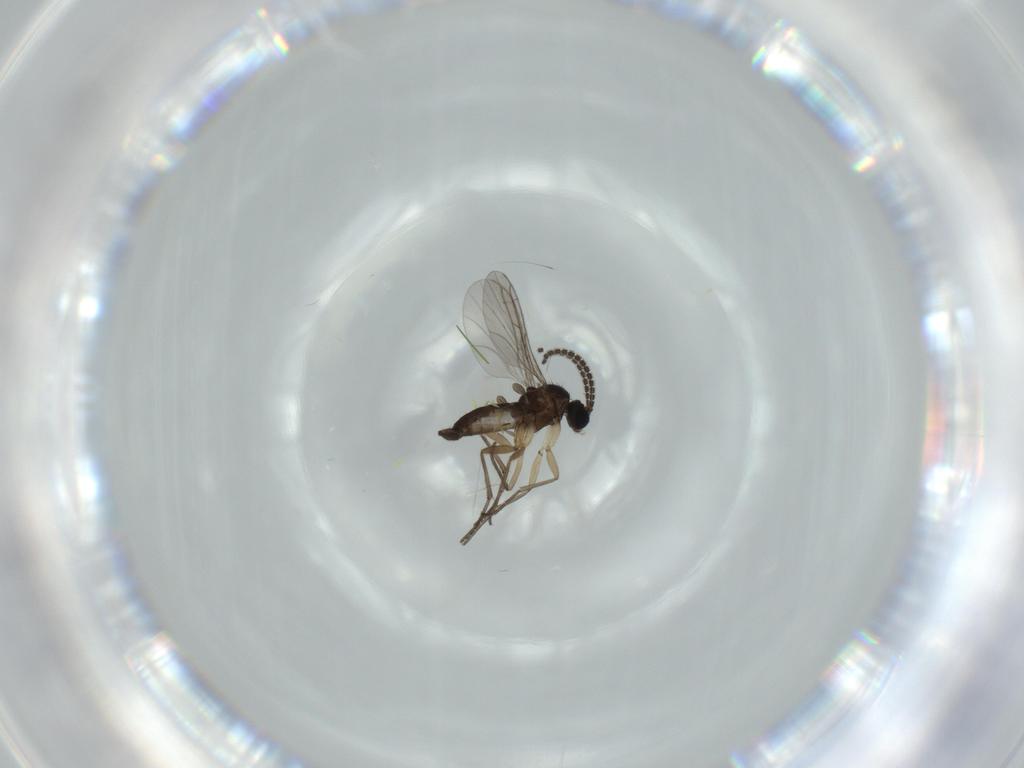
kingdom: Animalia
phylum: Arthropoda
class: Insecta
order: Diptera
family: Sciaridae
